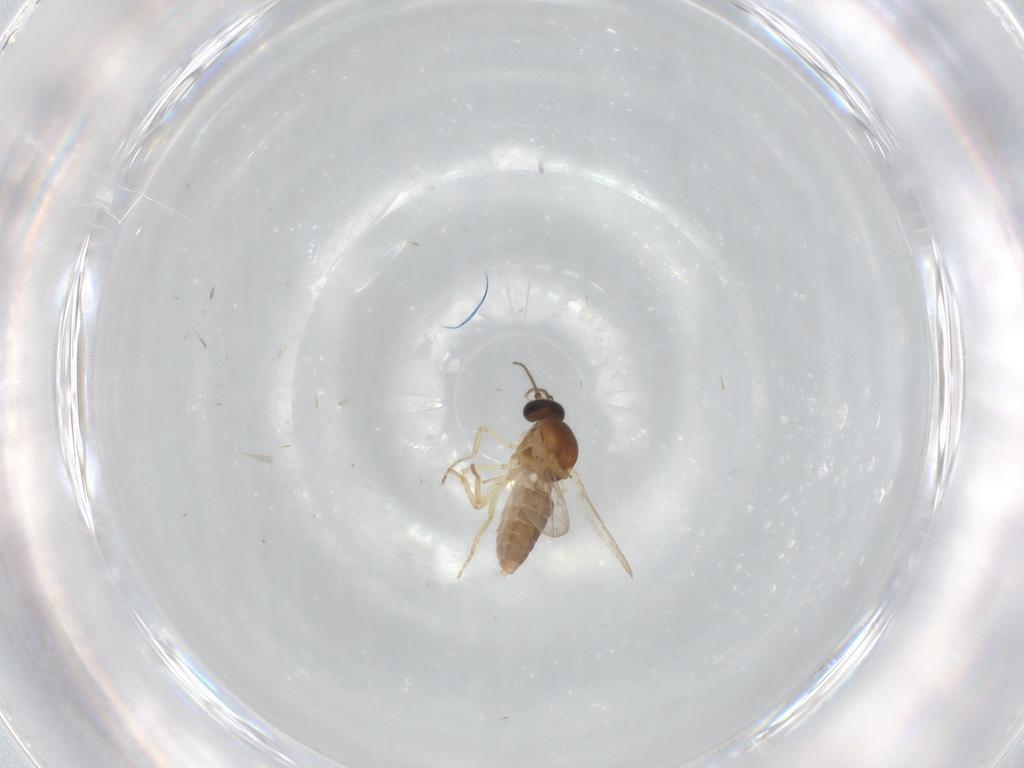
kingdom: Animalia
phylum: Arthropoda
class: Insecta
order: Diptera
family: Ceratopogonidae
